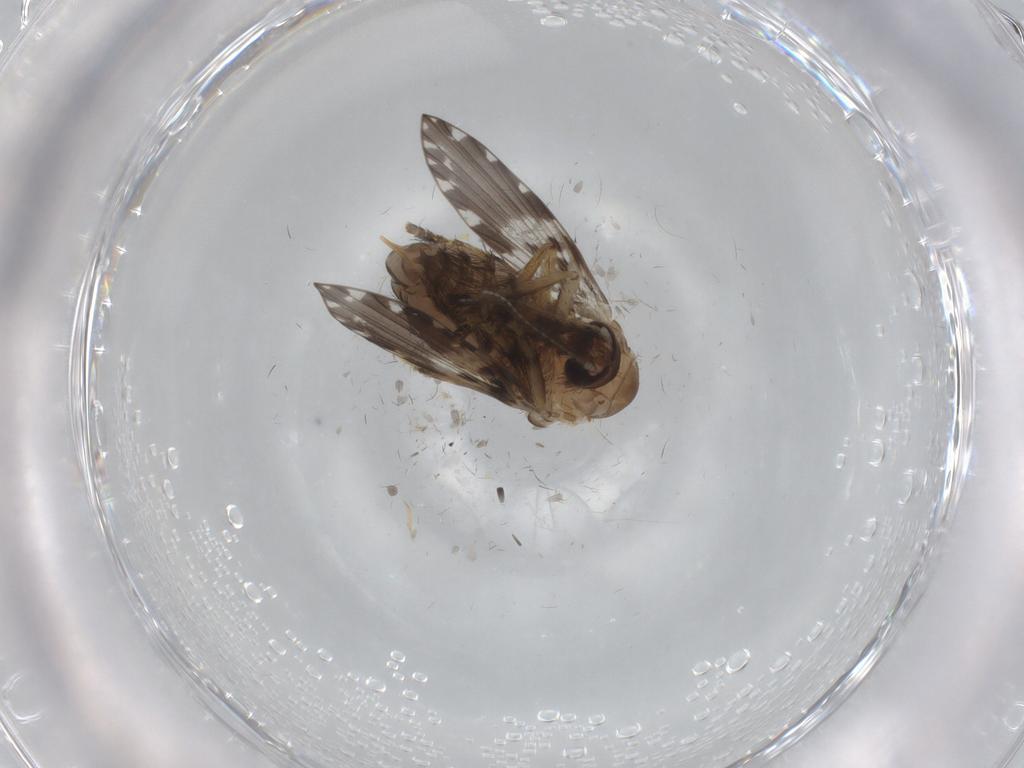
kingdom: Animalia
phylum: Arthropoda
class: Insecta
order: Diptera
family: Psychodidae
